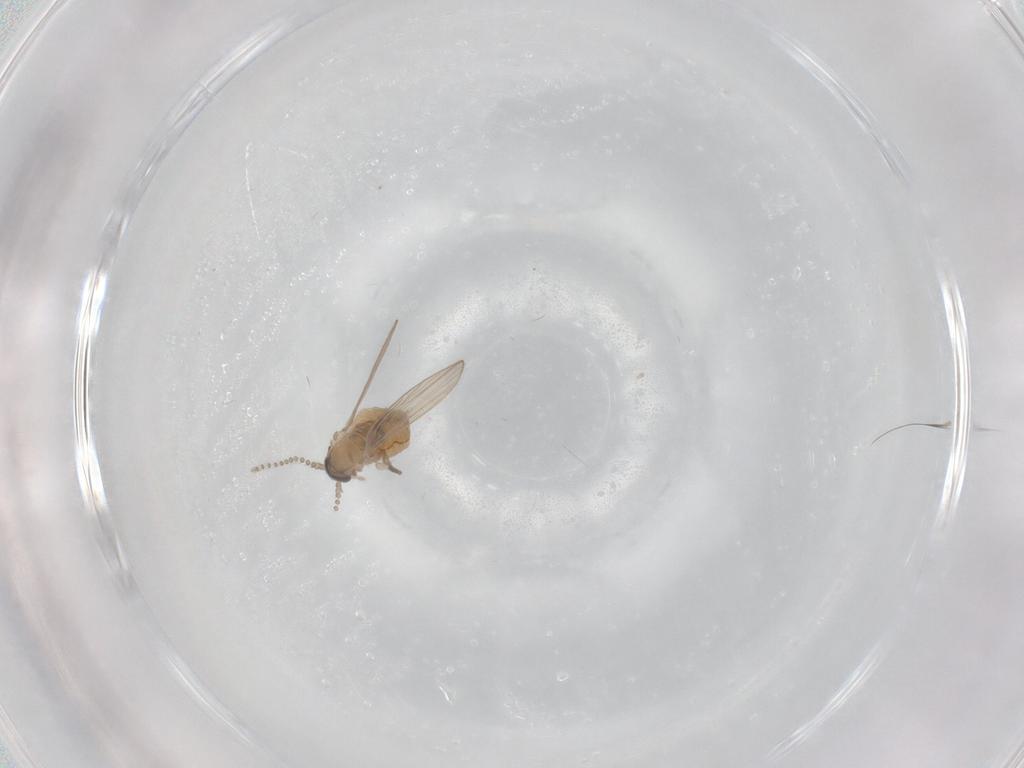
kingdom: Animalia
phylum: Arthropoda
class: Insecta
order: Diptera
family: Psychodidae
